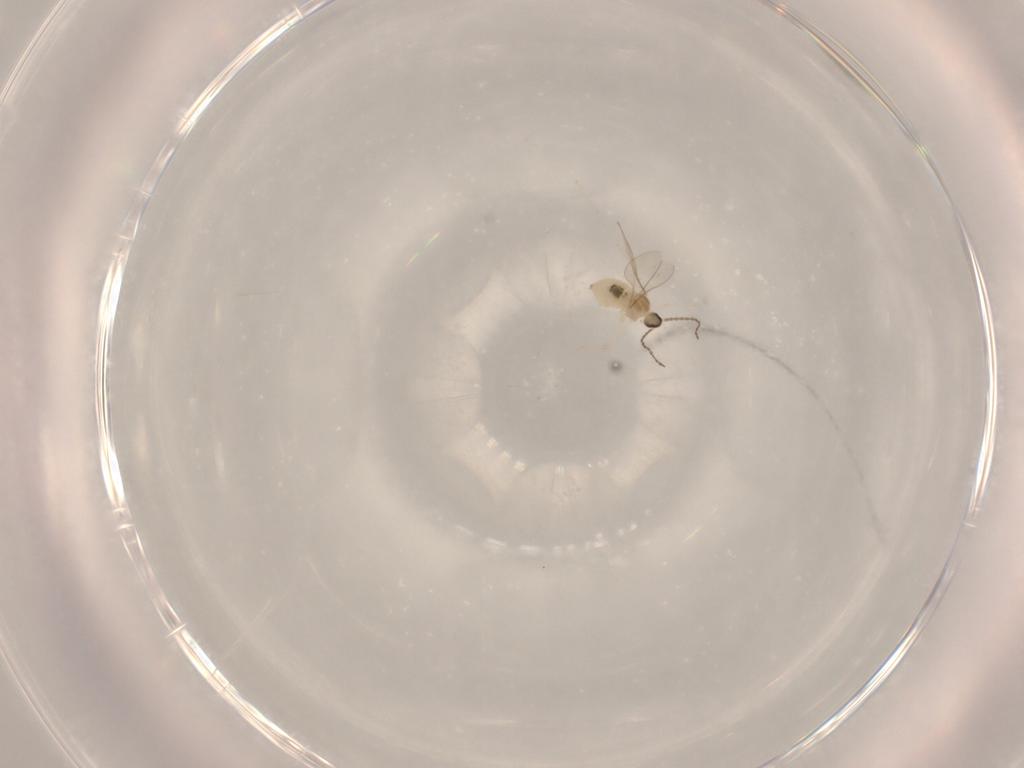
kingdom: Animalia
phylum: Arthropoda
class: Insecta
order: Diptera
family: Cecidomyiidae
